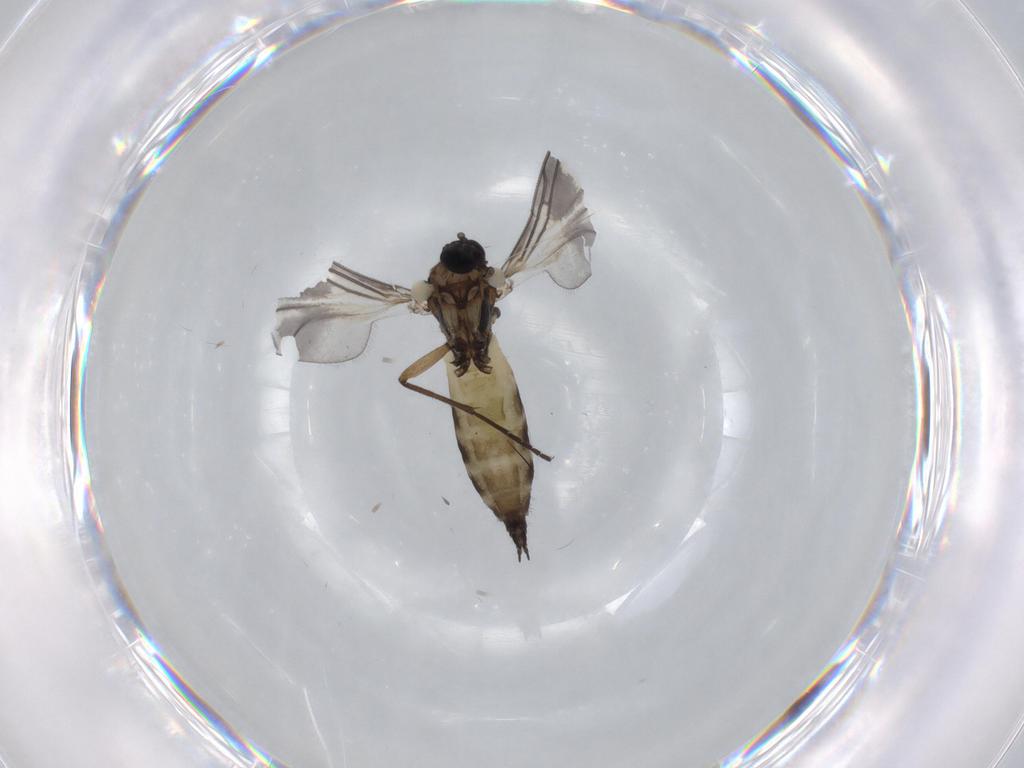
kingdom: Animalia
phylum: Arthropoda
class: Insecta
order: Diptera
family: Sciaridae
